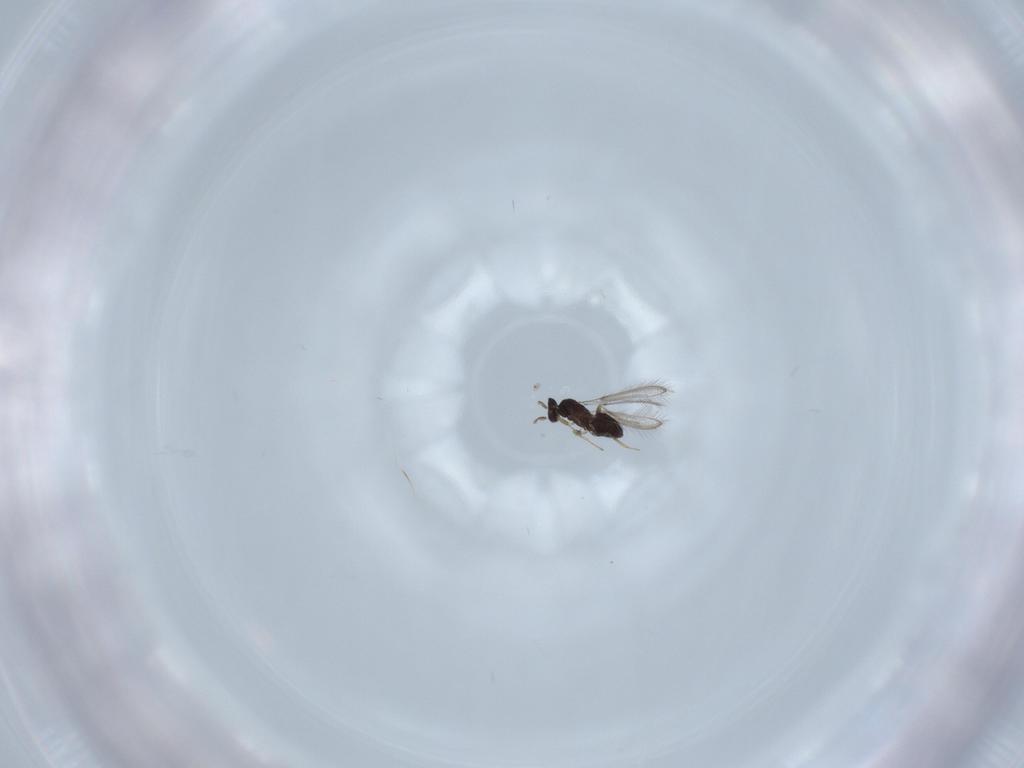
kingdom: Animalia
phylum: Arthropoda
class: Insecta
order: Hymenoptera
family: Mymaridae
